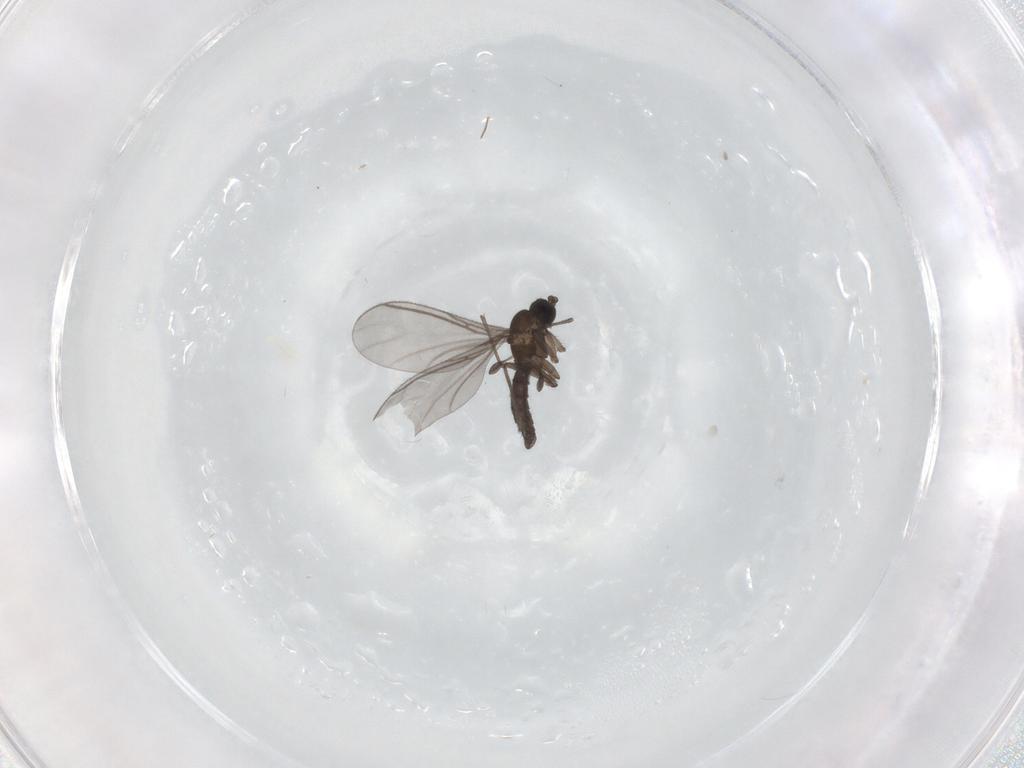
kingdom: Animalia
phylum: Arthropoda
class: Insecta
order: Diptera
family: Sciaridae
